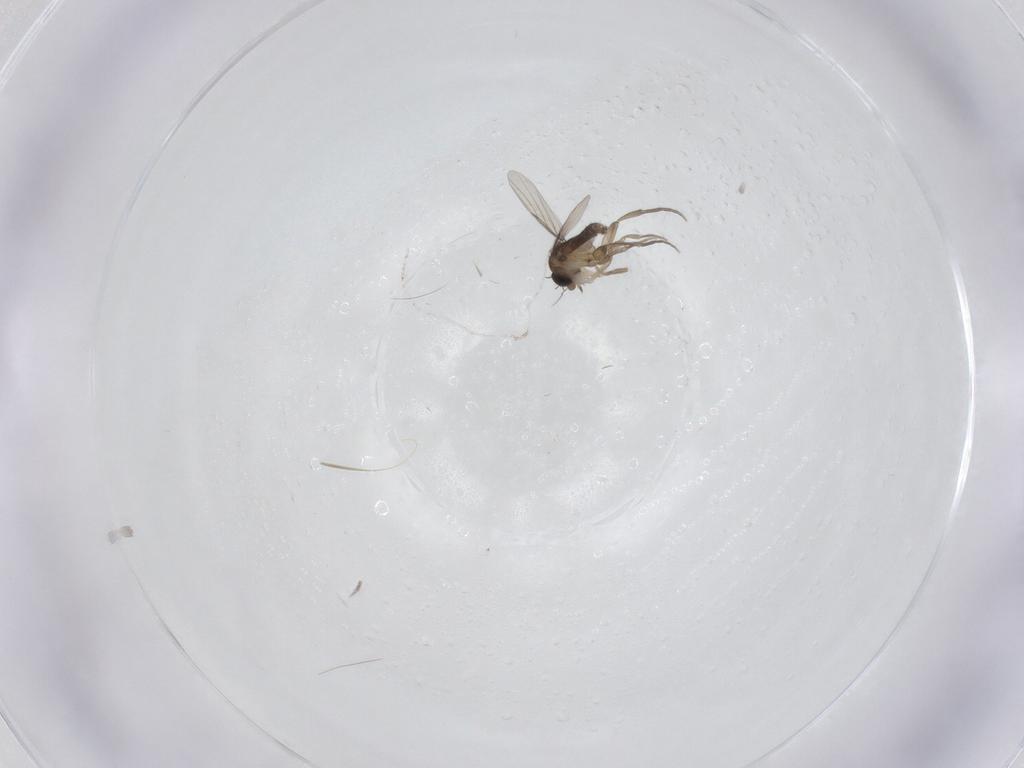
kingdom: Animalia
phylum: Arthropoda
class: Insecta
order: Diptera
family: Phoridae
